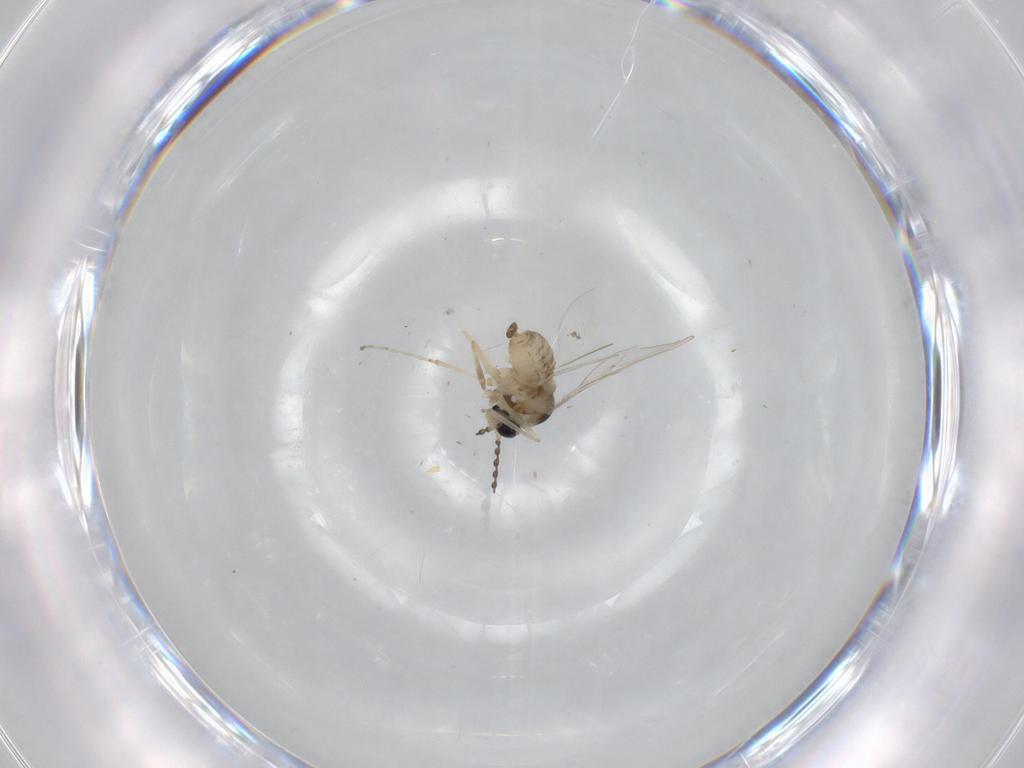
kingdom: Animalia
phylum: Arthropoda
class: Insecta
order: Diptera
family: Cecidomyiidae
